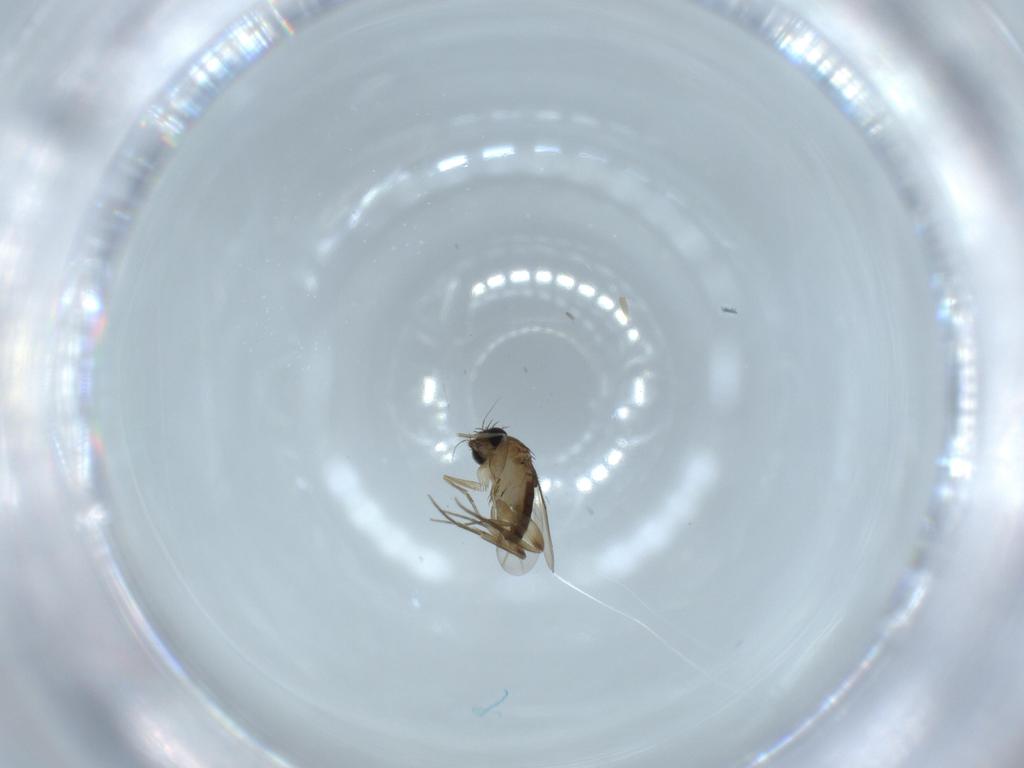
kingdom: Animalia
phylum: Arthropoda
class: Insecta
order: Diptera
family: Phoridae
